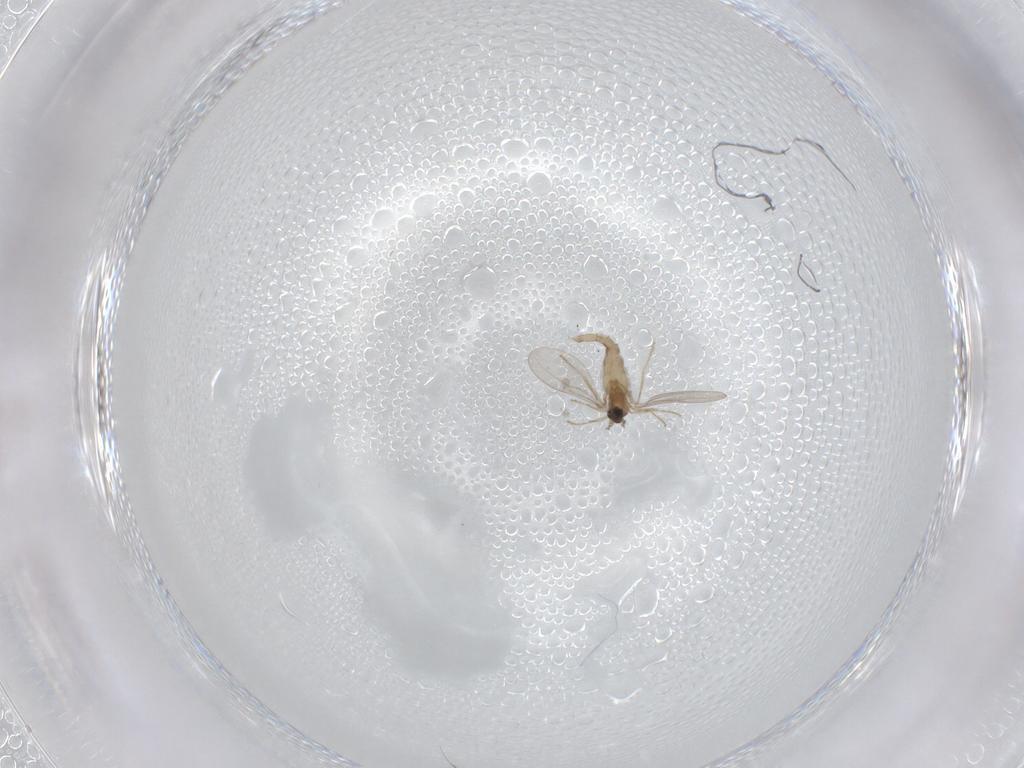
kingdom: Animalia
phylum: Arthropoda
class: Insecta
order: Diptera
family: Cecidomyiidae
